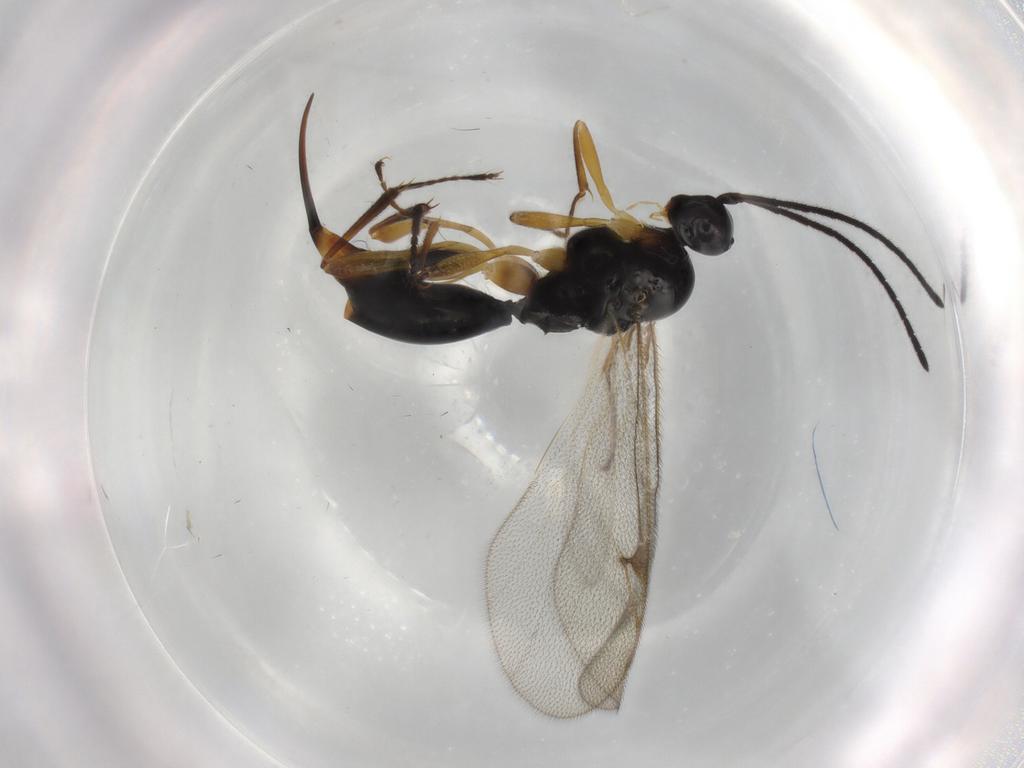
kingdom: Animalia
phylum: Arthropoda
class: Insecta
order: Hymenoptera
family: Proctotrupidae
